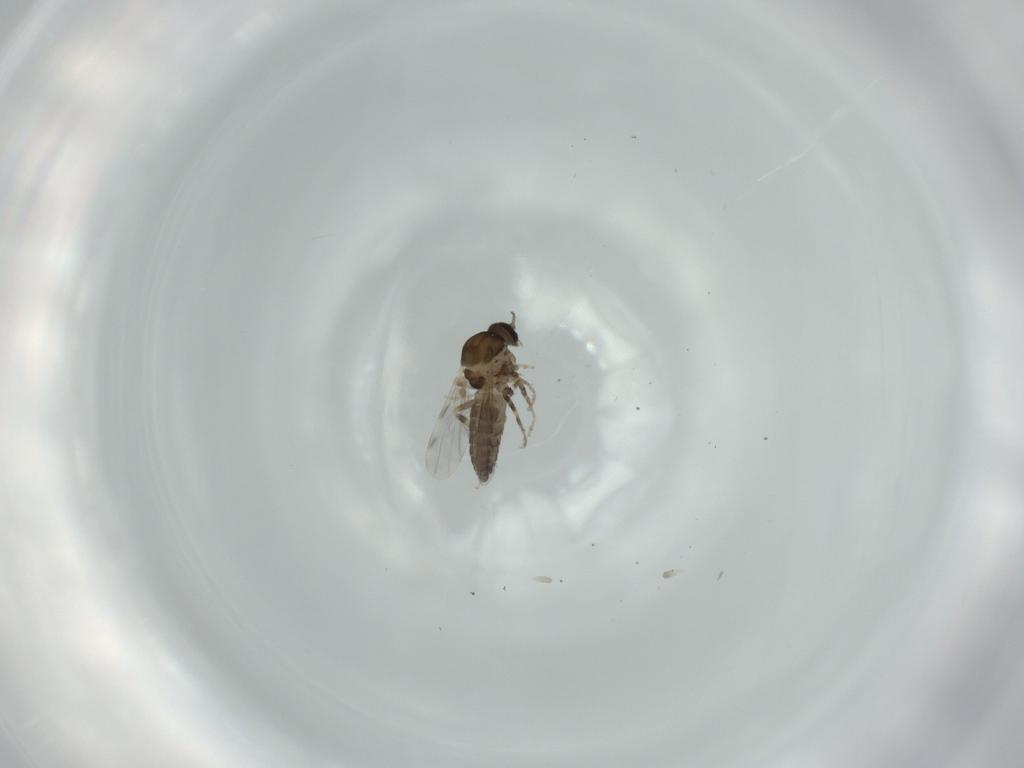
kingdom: Animalia
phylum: Arthropoda
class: Insecta
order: Diptera
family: Ceratopogonidae
